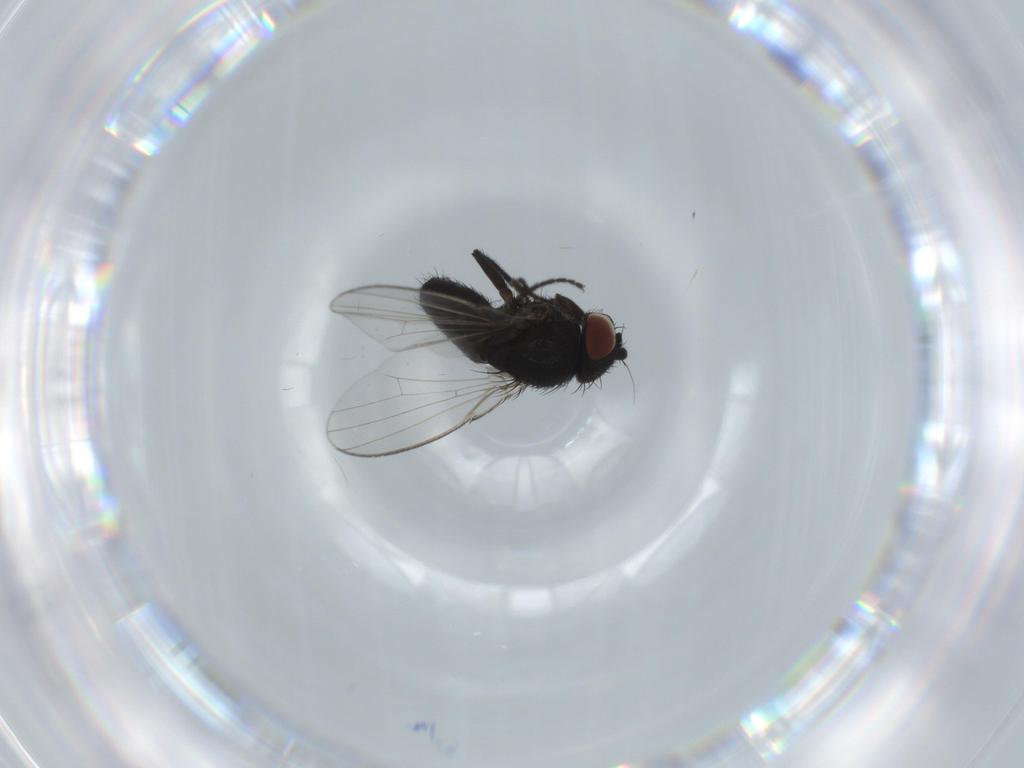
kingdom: Animalia
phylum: Arthropoda
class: Insecta
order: Diptera
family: Milichiidae
